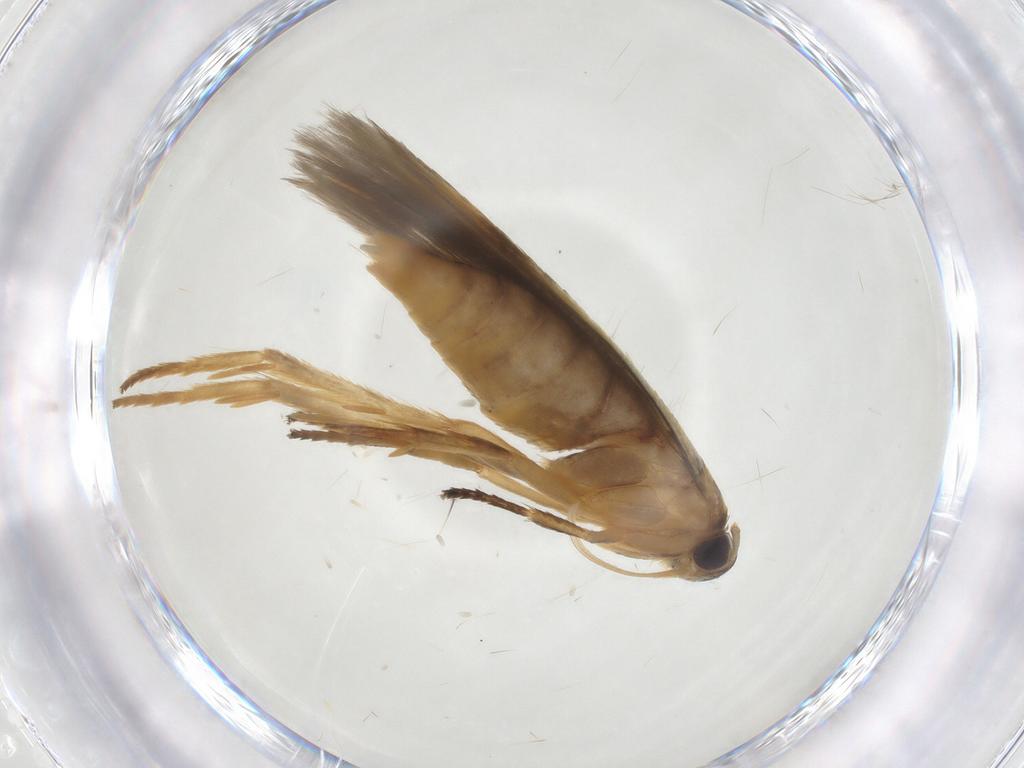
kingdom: Animalia
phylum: Arthropoda
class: Insecta
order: Lepidoptera
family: Stathmopodidae
